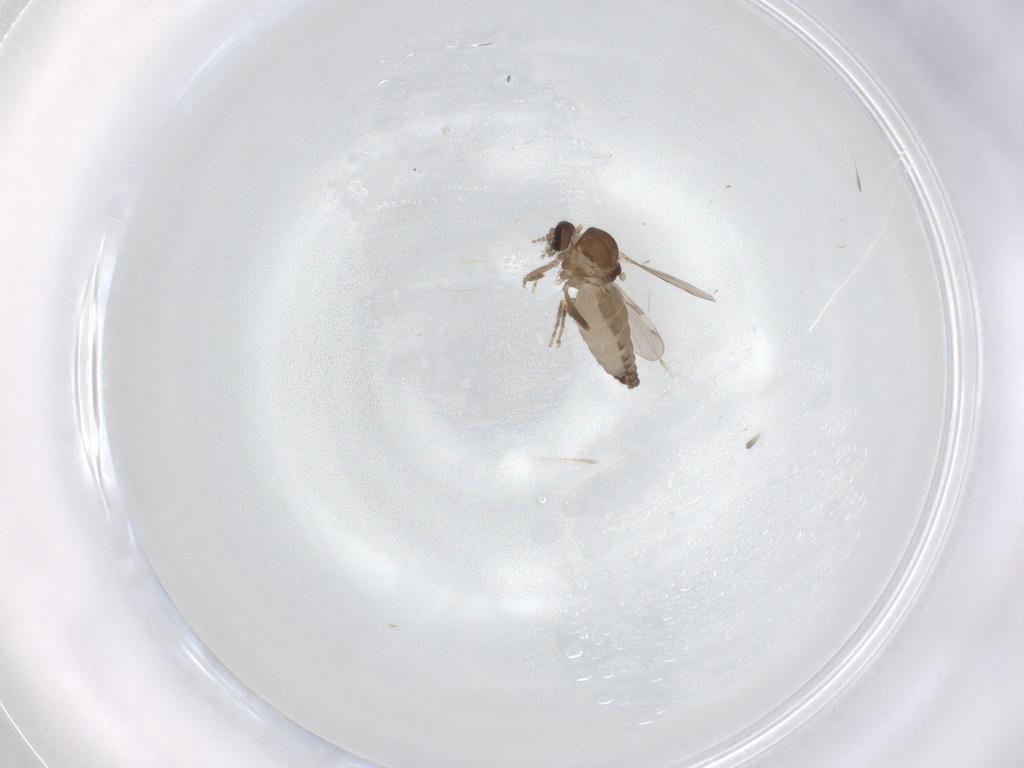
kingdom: Animalia
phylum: Arthropoda
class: Insecta
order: Diptera
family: Ceratopogonidae
